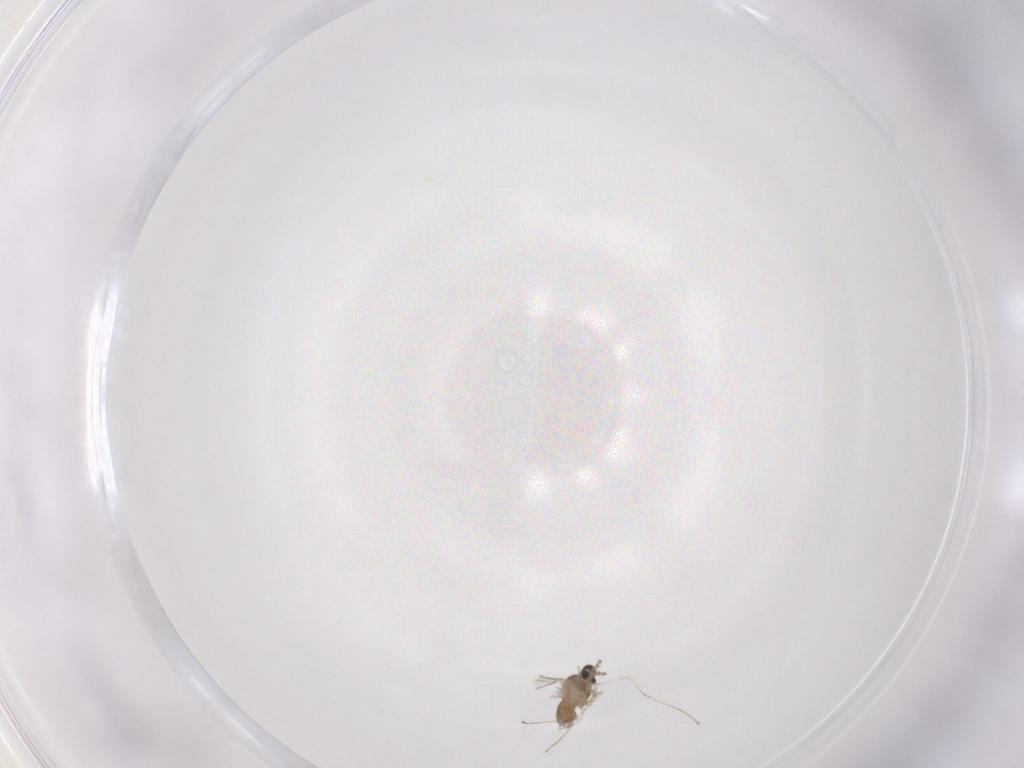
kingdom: Animalia
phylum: Arthropoda
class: Insecta
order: Diptera
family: Cecidomyiidae
